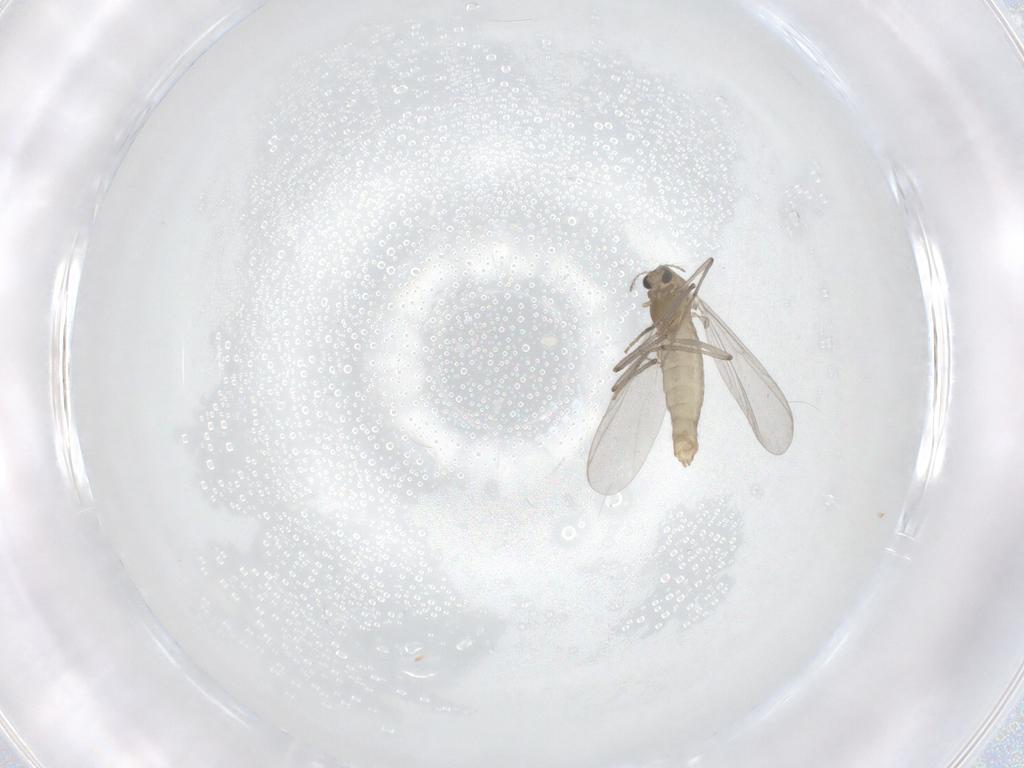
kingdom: Animalia
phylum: Arthropoda
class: Insecta
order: Diptera
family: Chironomidae
